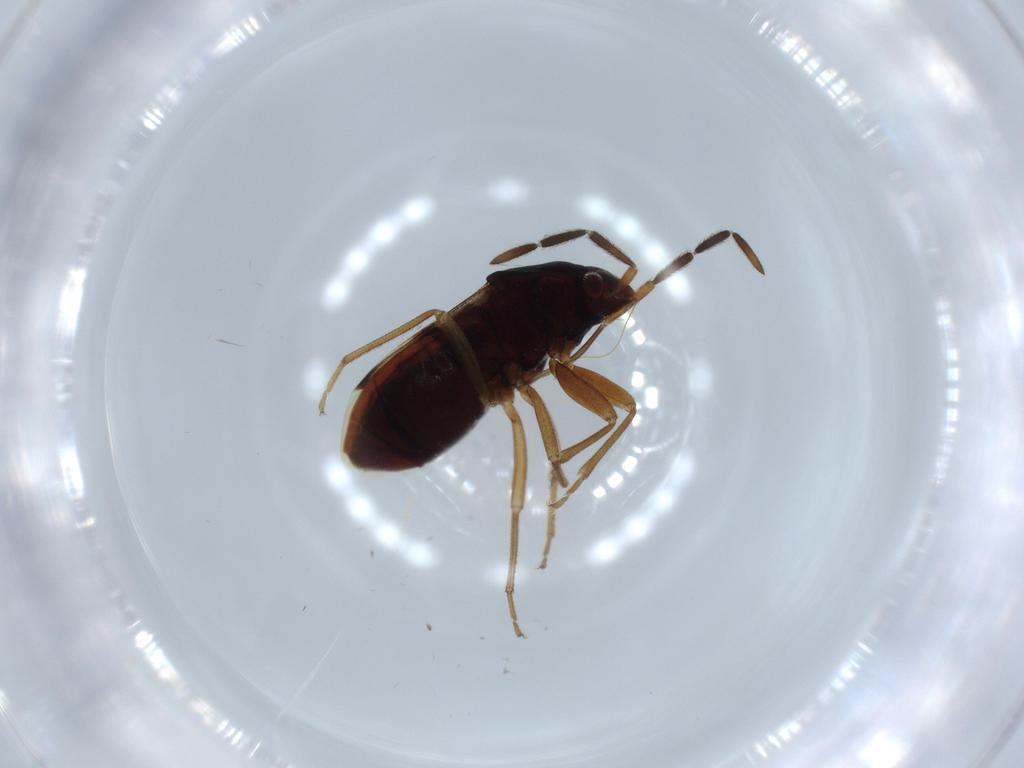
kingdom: Animalia
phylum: Arthropoda
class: Insecta
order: Hemiptera
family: Rhyparochromidae
